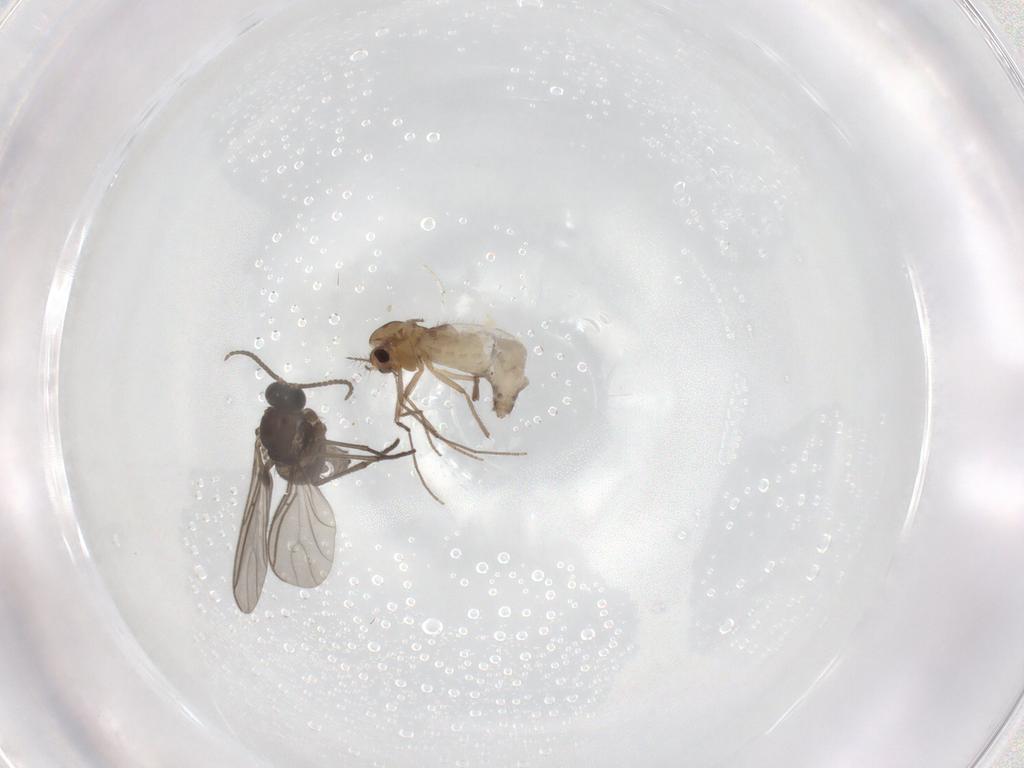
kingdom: Animalia
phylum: Arthropoda
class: Insecta
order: Diptera
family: Chironomidae
